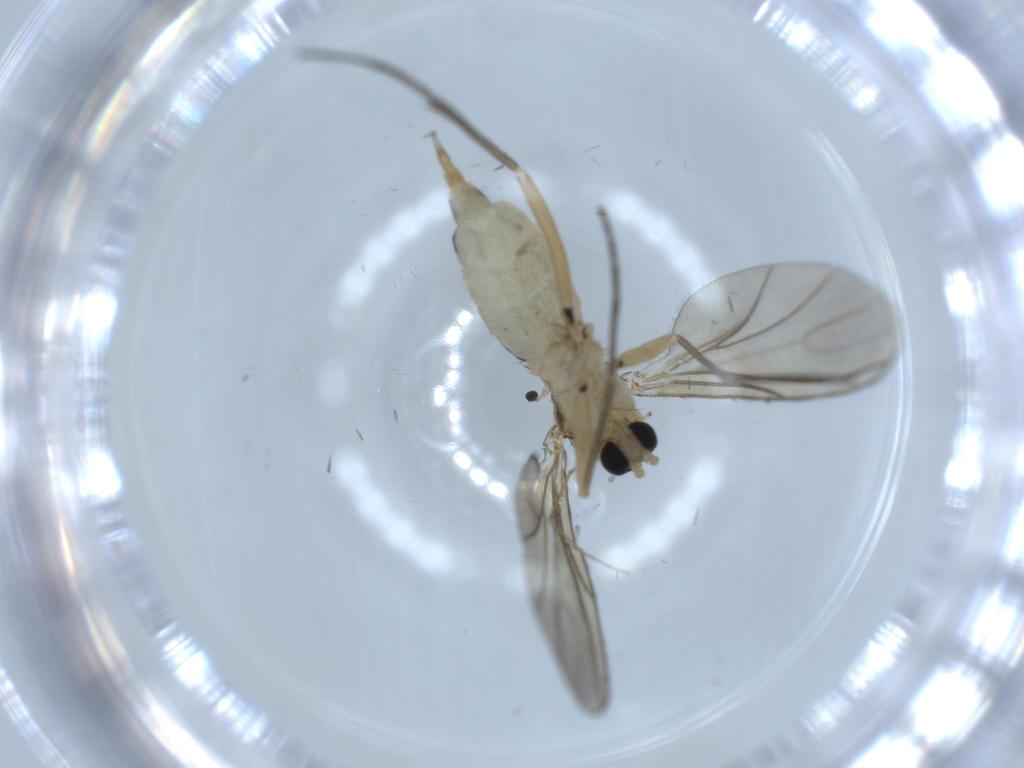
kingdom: Animalia
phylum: Arthropoda
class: Insecta
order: Diptera
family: Sciaridae
